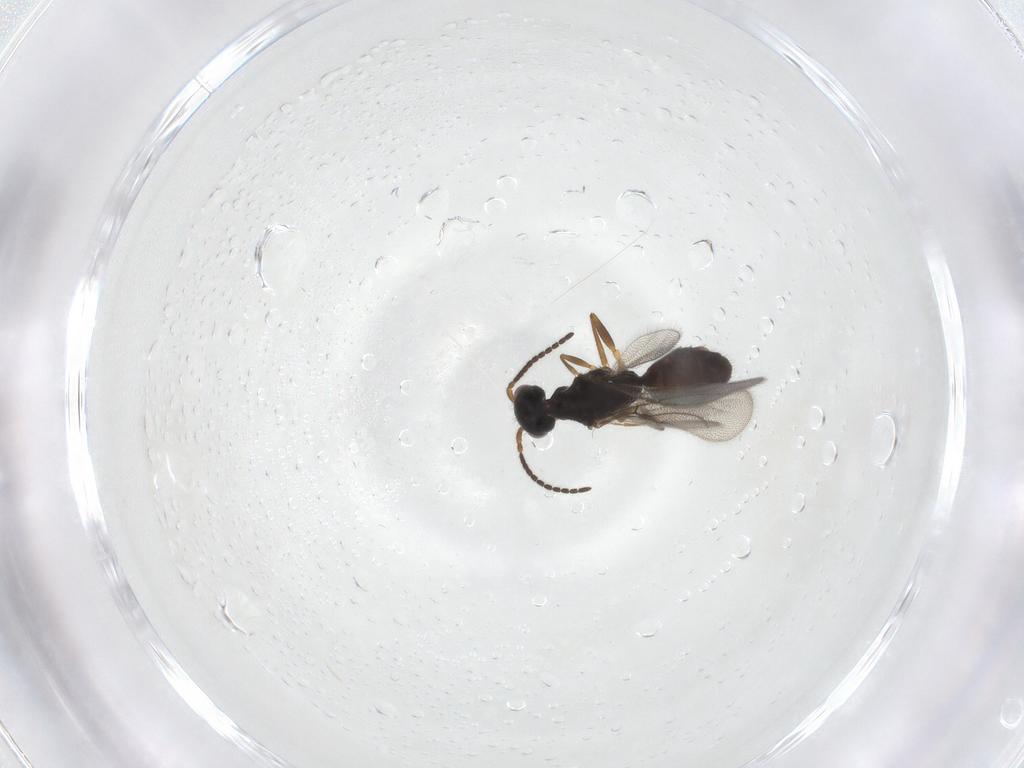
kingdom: Animalia
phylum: Arthropoda
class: Insecta
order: Hymenoptera
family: Bethylidae
